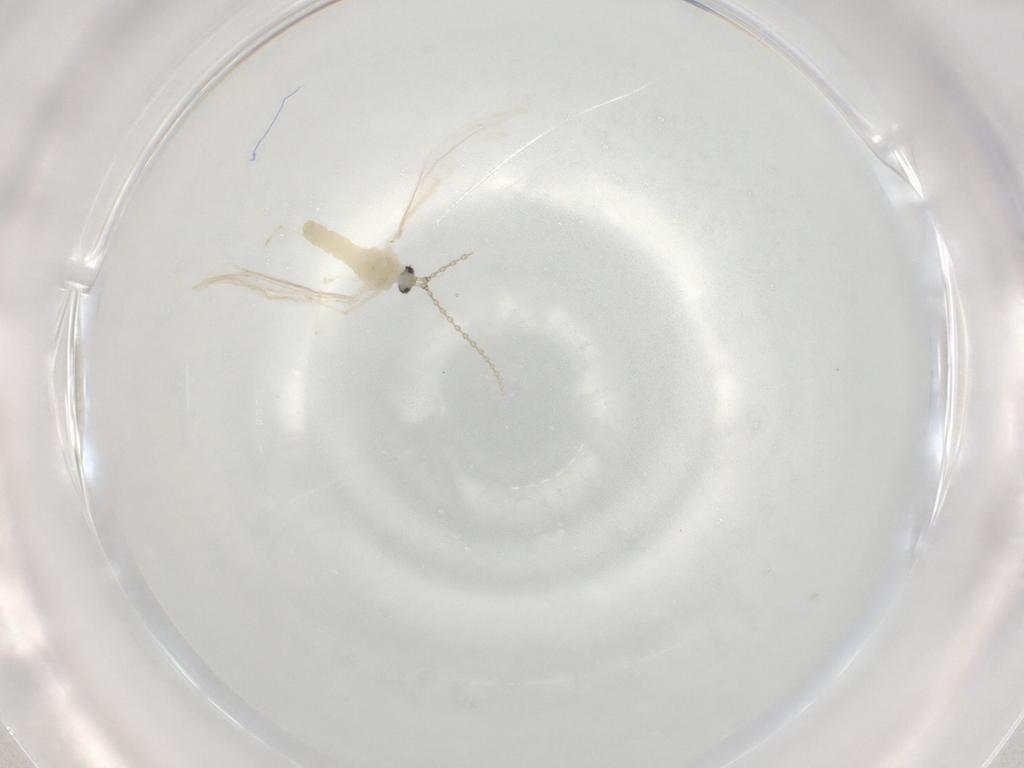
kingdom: Animalia
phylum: Arthropoda
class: Insecta
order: Diptera
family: Cecidomyiidae
